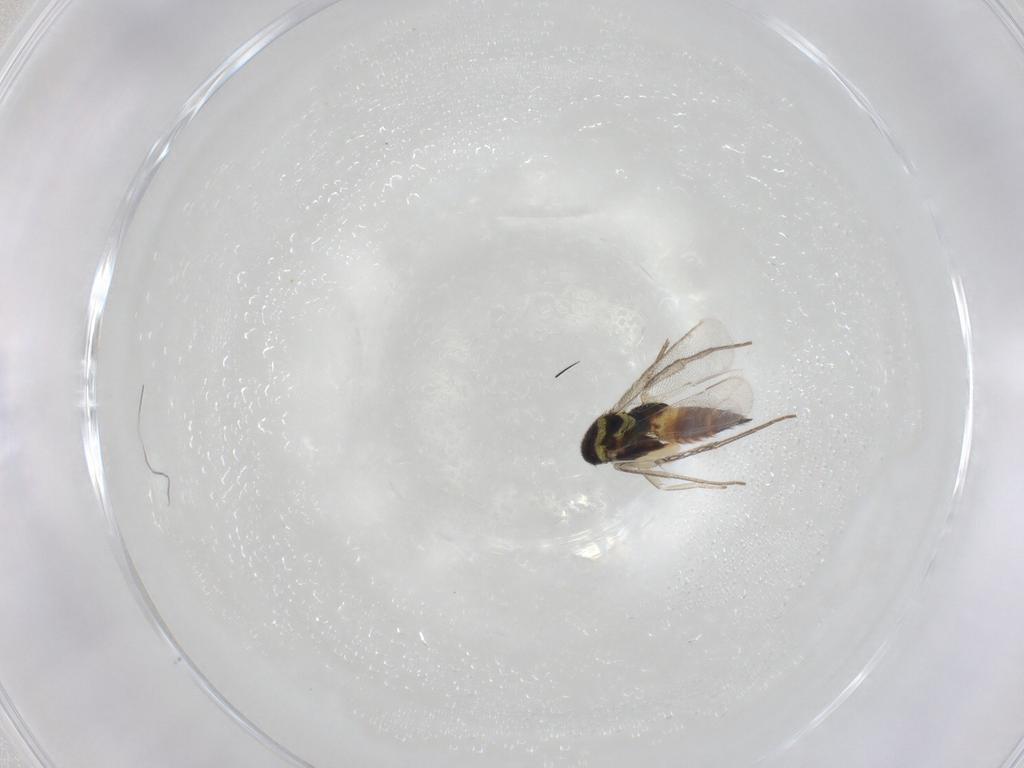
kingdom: Animalia
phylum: Arthropoda
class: Insecta
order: Hymenoptera
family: Eulophidae
